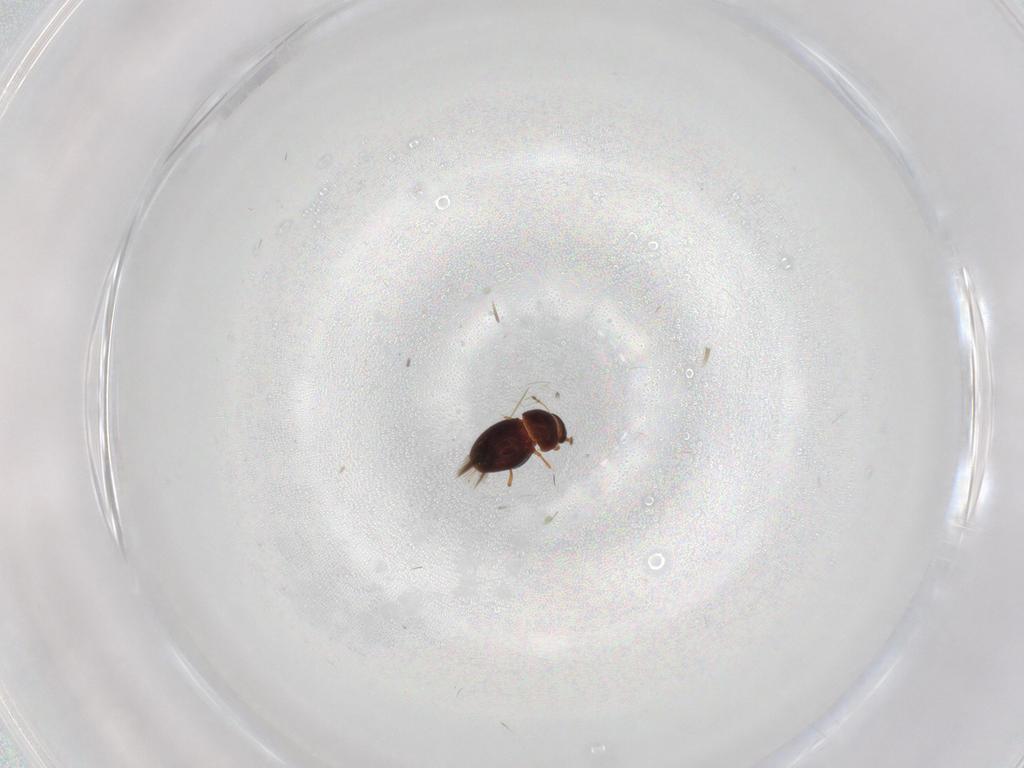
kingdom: Animalia
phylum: Arthropoda
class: Insecta
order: Coleoptera
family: Ptiliidae
